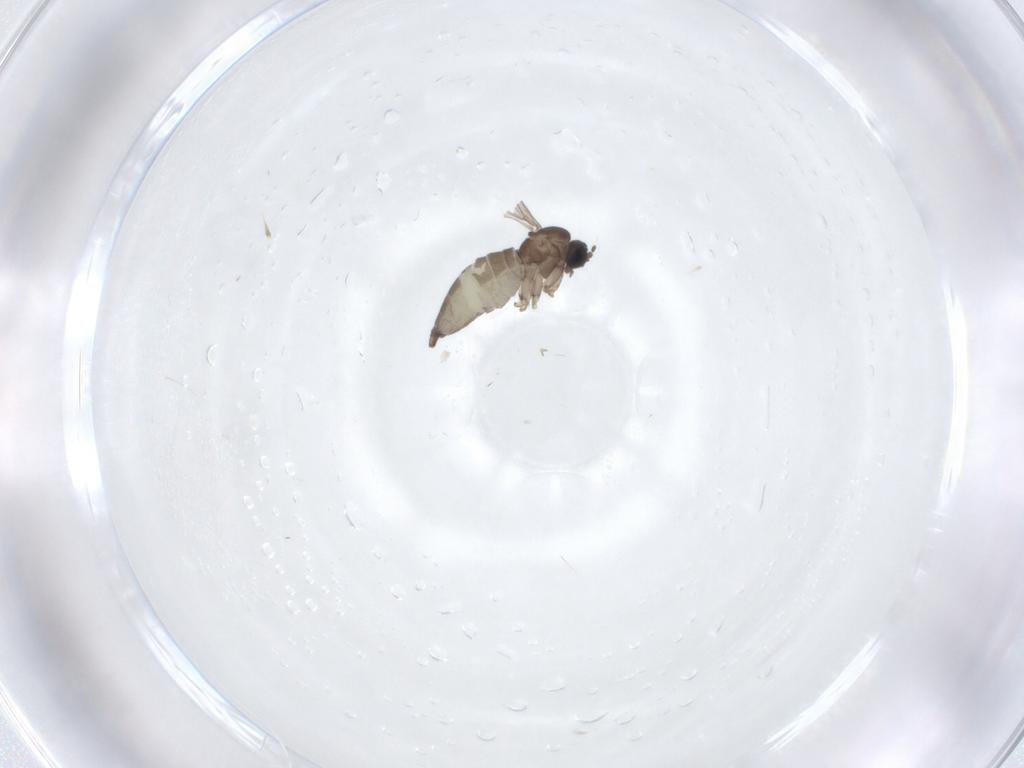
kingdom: Animalia
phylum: Arthropoda
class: Insecta
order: Diptera
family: Sciaridae
